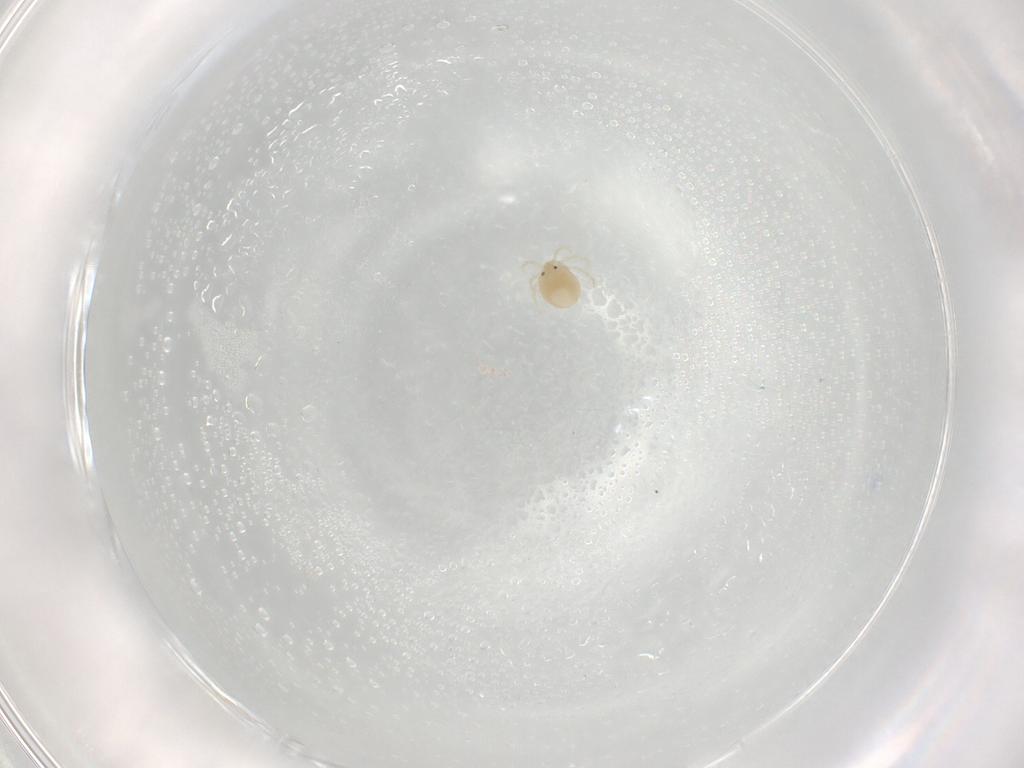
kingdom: Animalia
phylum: Arthropoda
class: Arachnida
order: Trombidiformes
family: Lebertiidae
